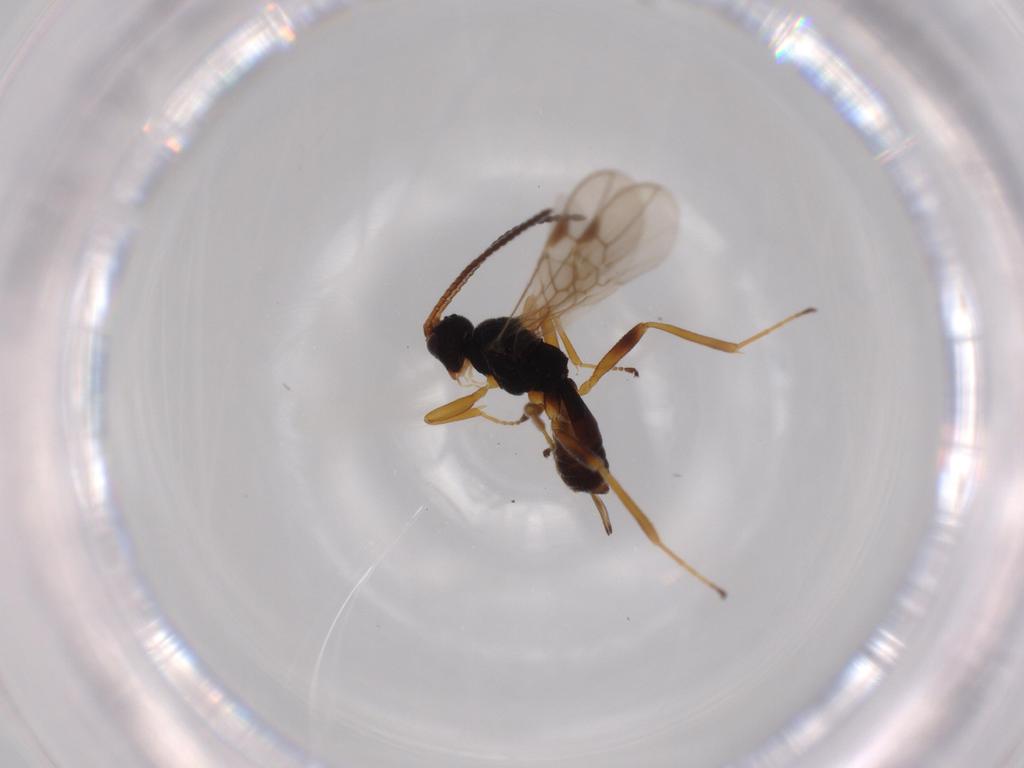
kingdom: Animalia
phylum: Arthropoda
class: Insecta
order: Hymenoptera
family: Braconidae
